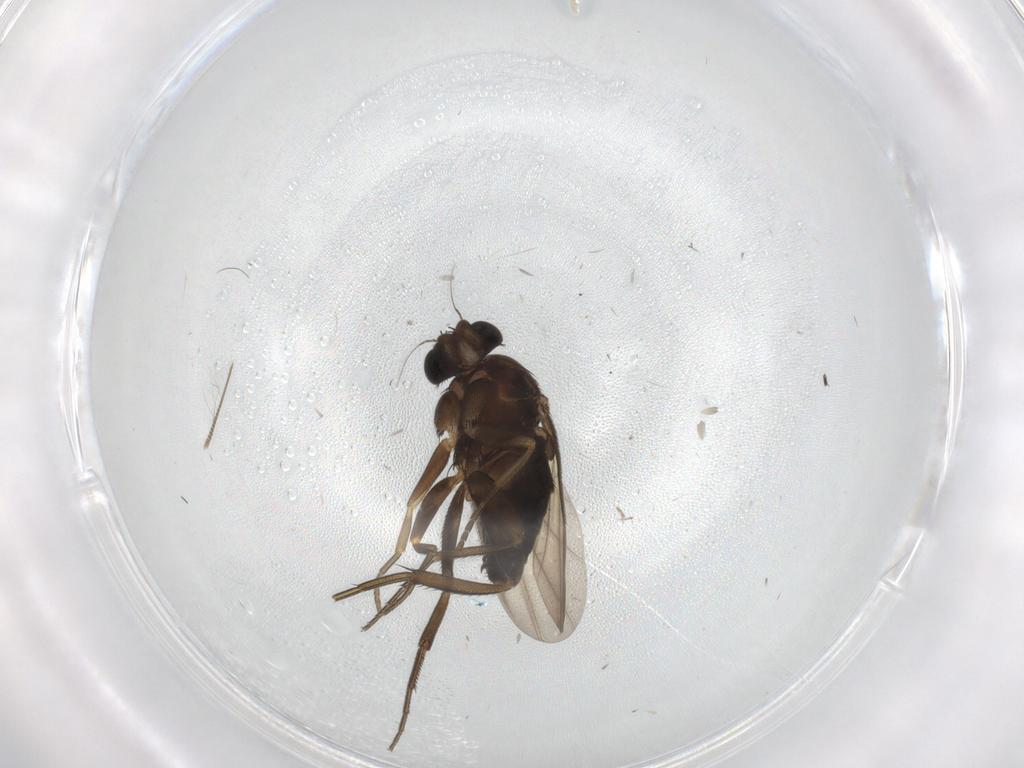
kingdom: Animalia
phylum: Arthropoda
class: Insecta
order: Diptera
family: Phoridae
